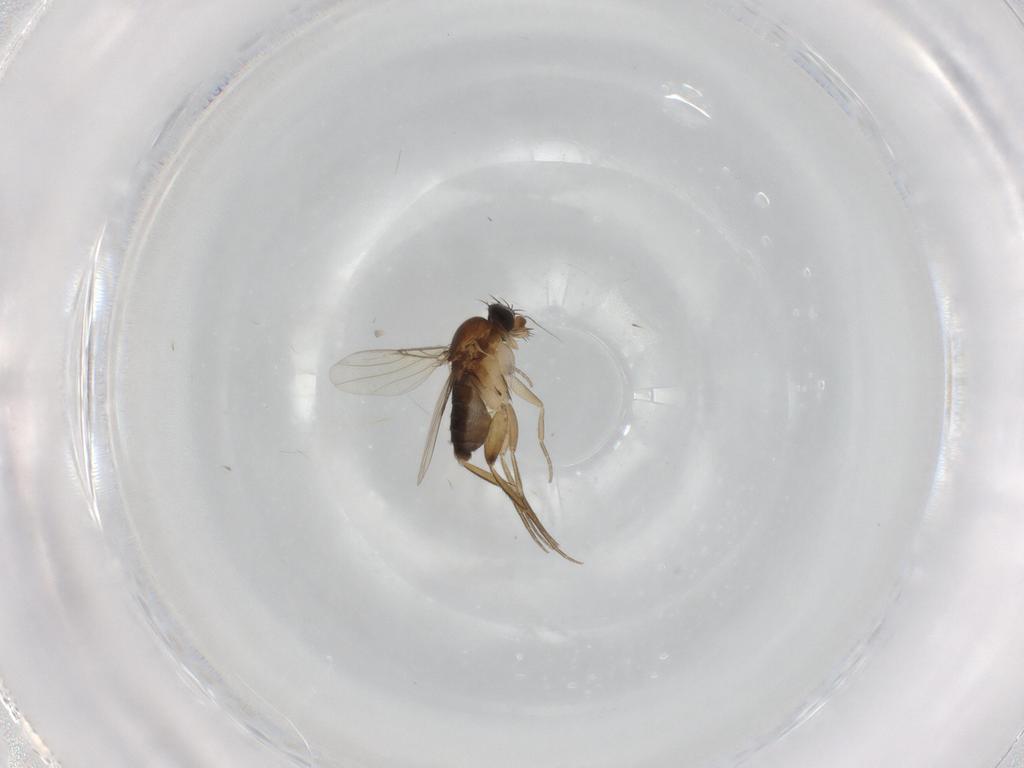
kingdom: Animalia
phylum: Arthropoda
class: Insecta
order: Diptera
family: Phoridae
